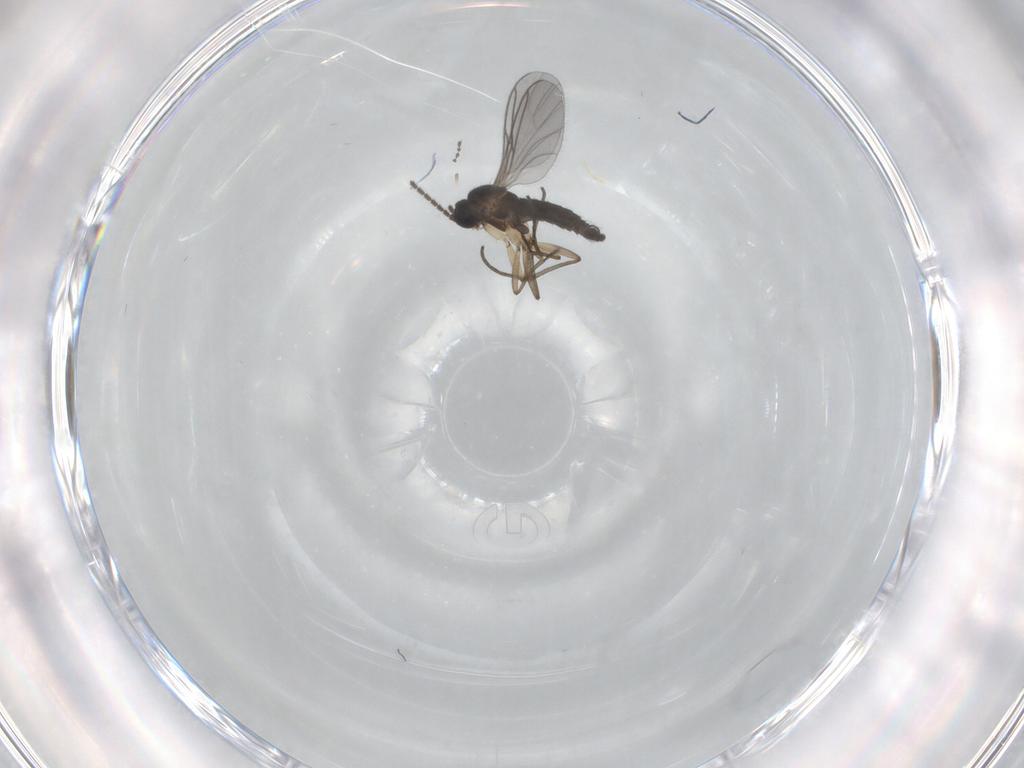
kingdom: Animalia
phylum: Arthropoda
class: Insecta
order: Diptera
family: Sciaridae
